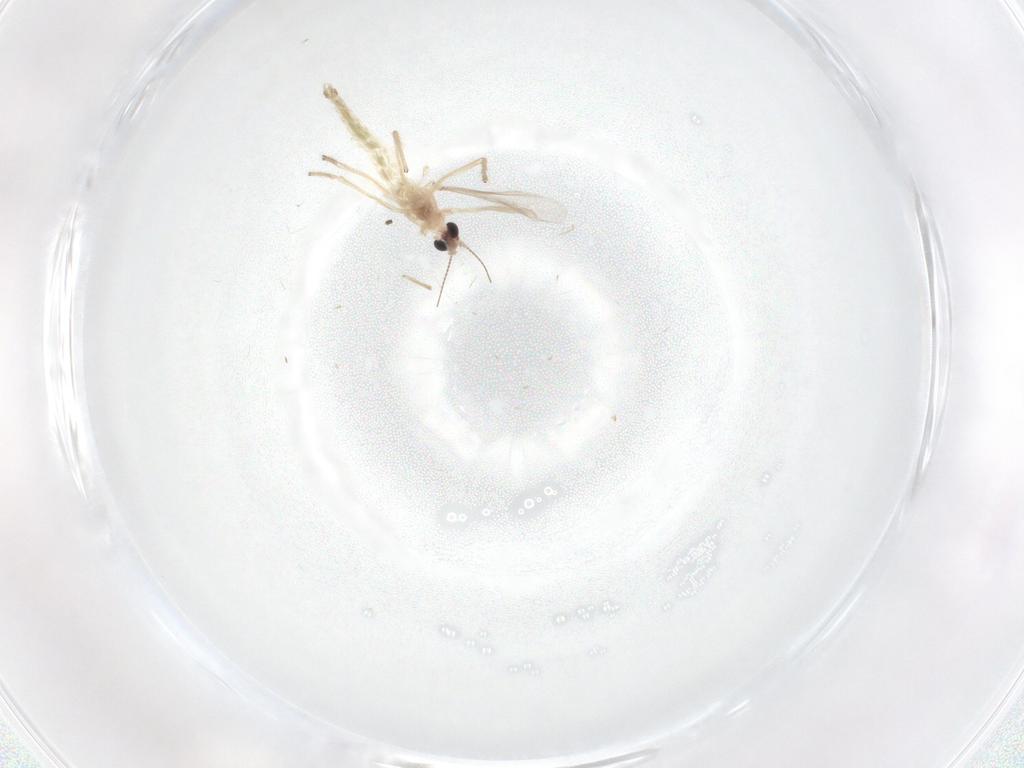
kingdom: Animalia
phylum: Arthropoda
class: Insecta
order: Diptera
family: Chironomidae
